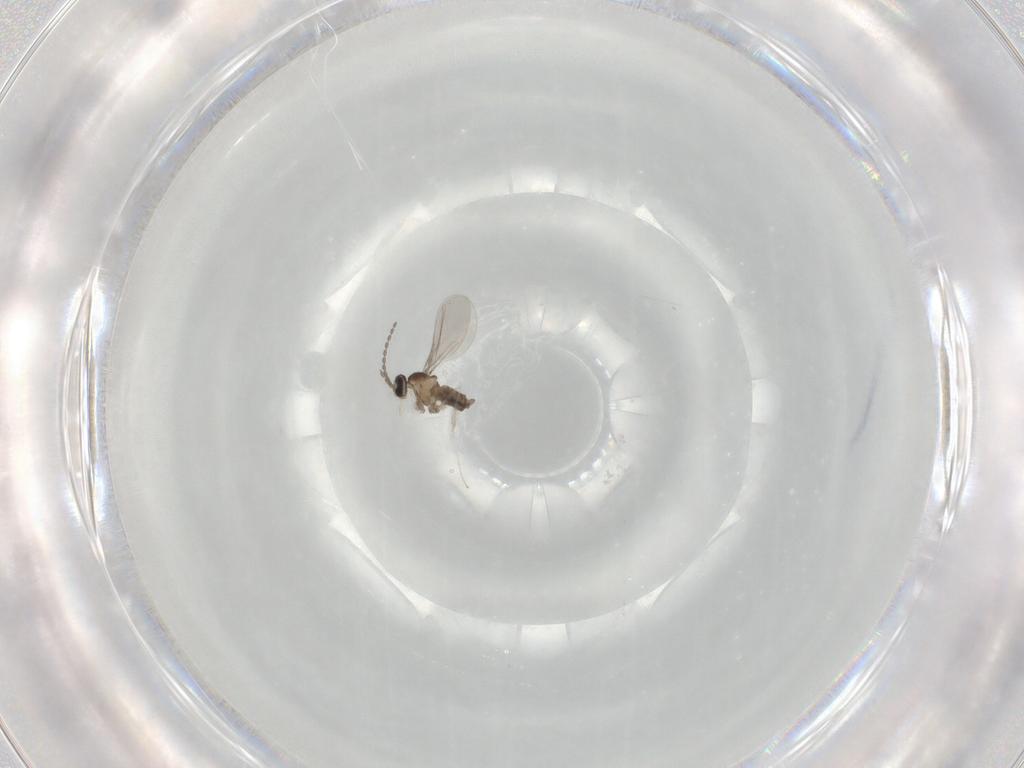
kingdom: Animalia
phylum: Arthropoda
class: Insecta
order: Diptera
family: Cecidomyiidae
